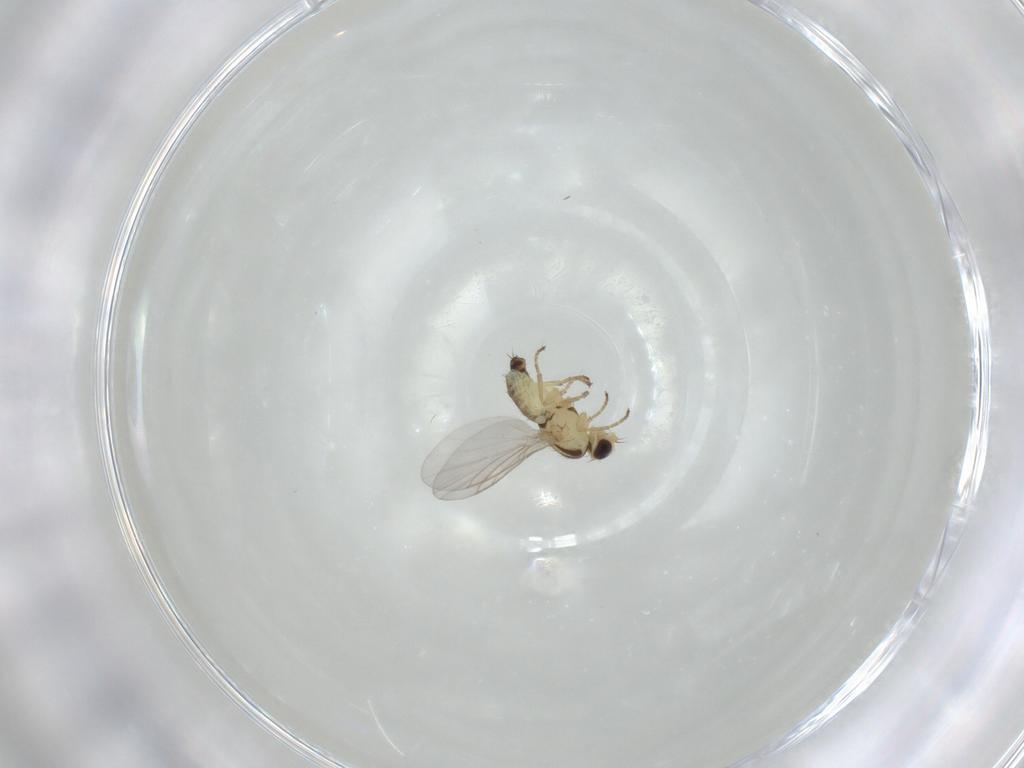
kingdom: Animalia
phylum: Arthropoda
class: Insecta
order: Diptera
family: Agromyzidae
